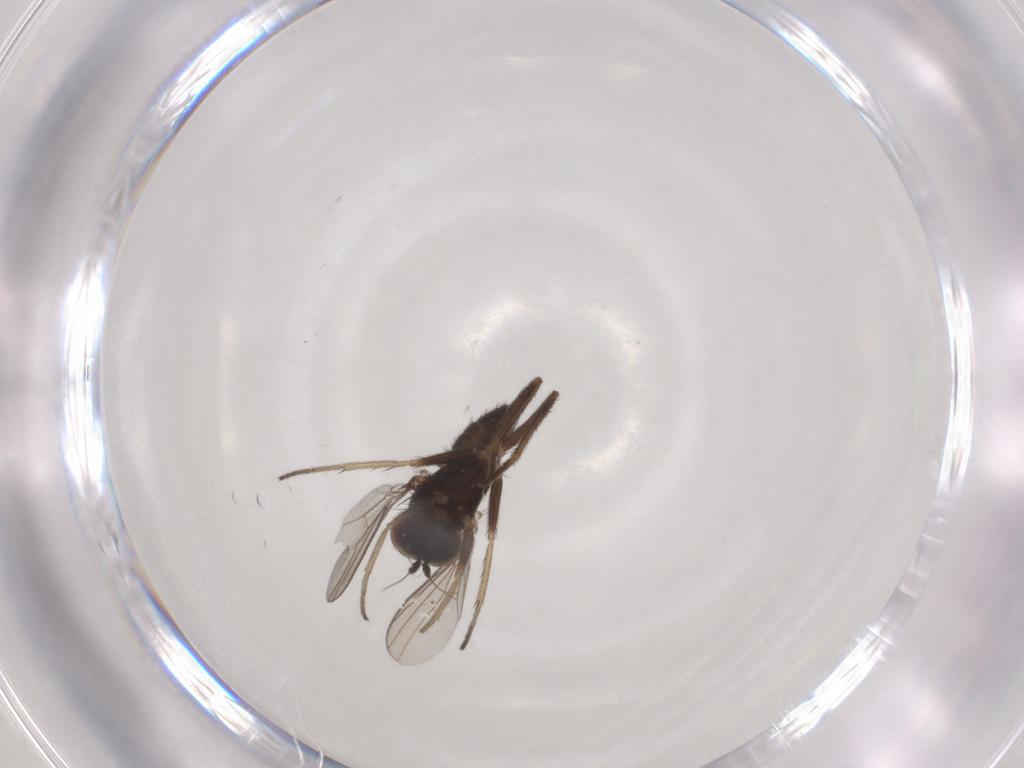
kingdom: Animalia
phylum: Arthropoda
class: Insecta
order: Diptera
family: Dolichopodidae
